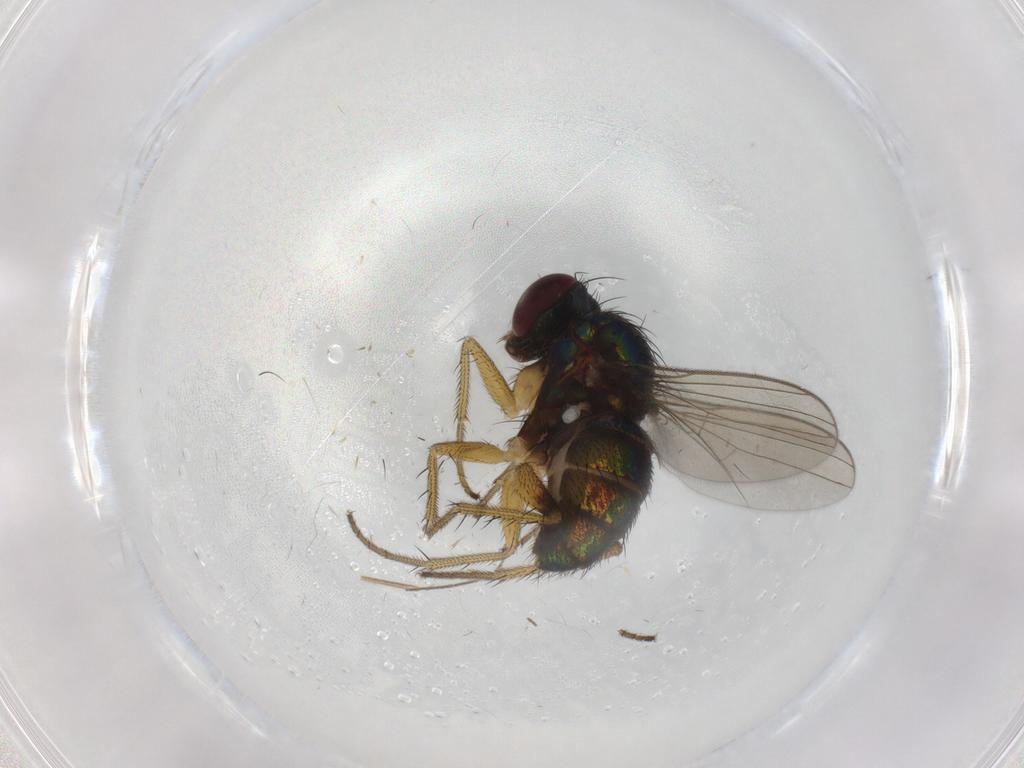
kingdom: Animalia
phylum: Arthropoda
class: Insecta
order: Diptera
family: Dolichopodidae
